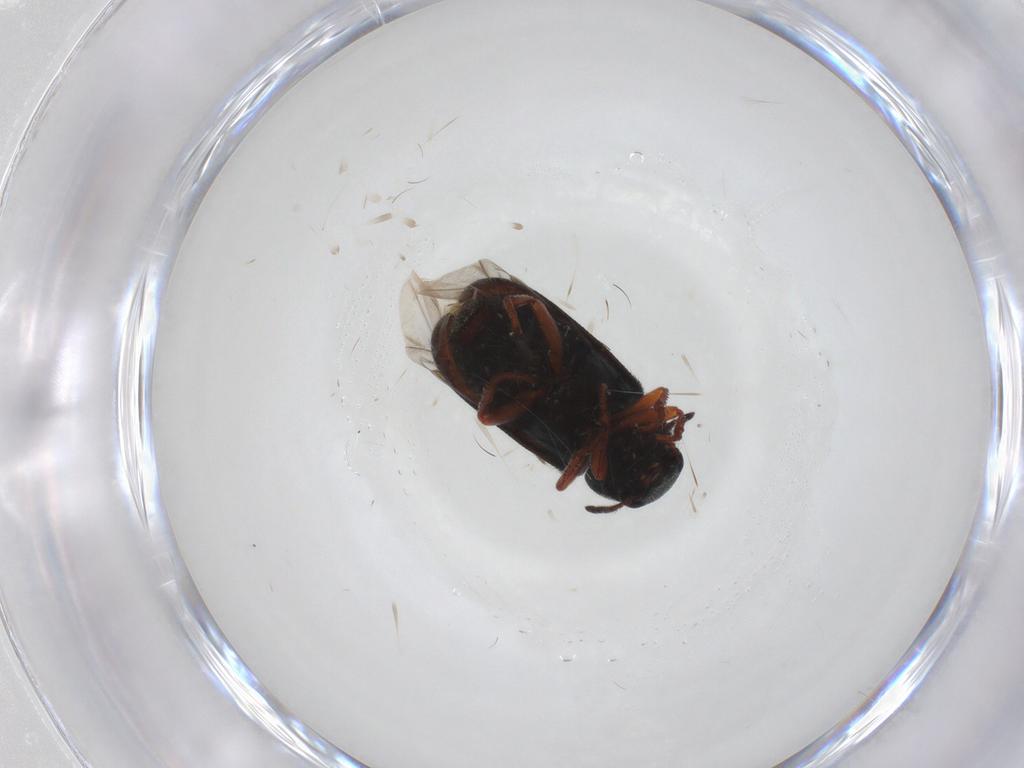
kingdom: Animalia
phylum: Arthropoda
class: Insecta
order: Coleoptera
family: Melyridae
